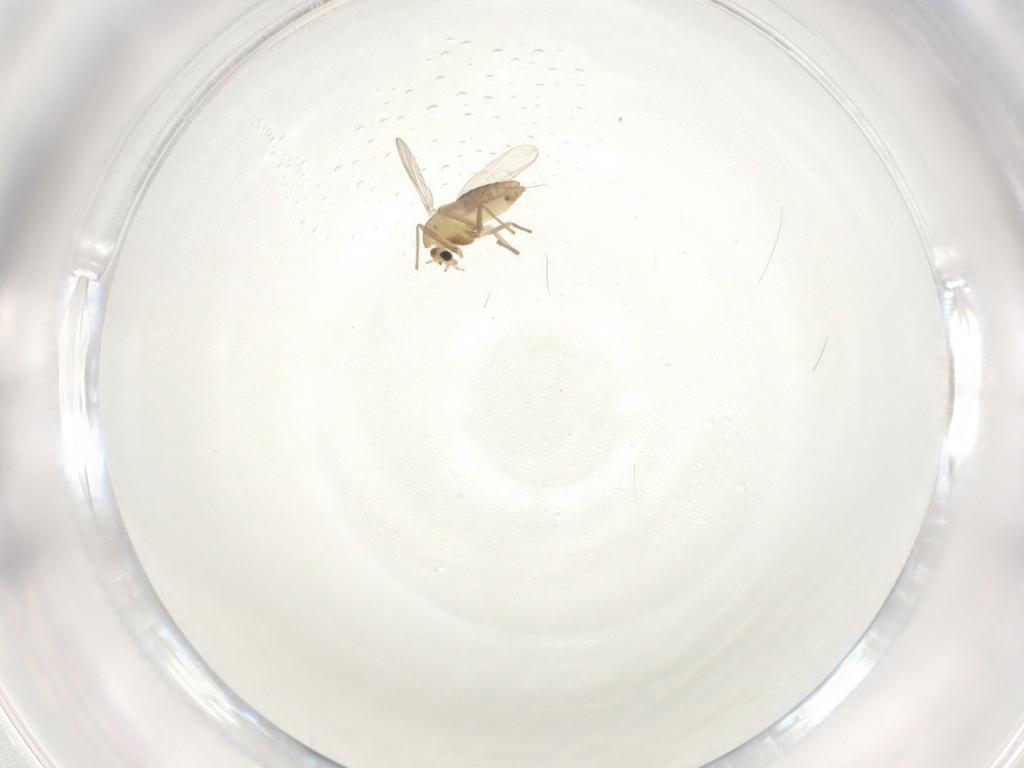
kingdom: Animalia
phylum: Arthropoda
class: Insecta
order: Diptera
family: Chironomidae
